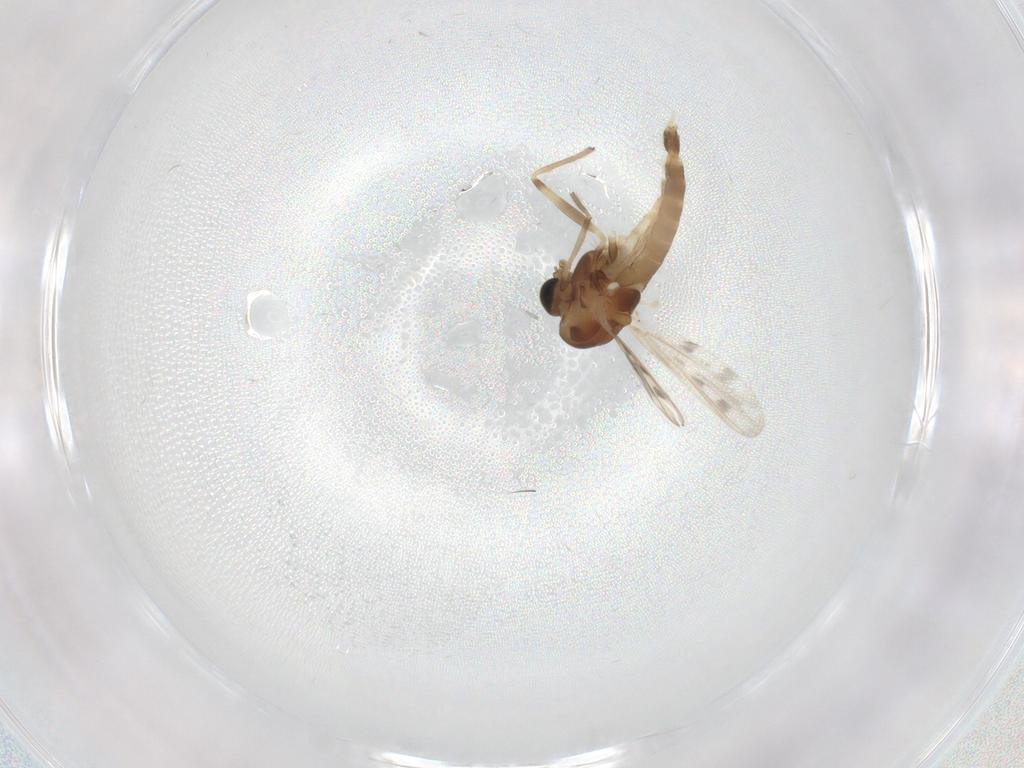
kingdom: Animalia
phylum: Arthropoda
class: Insecta
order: Diptera
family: Chironomidae
